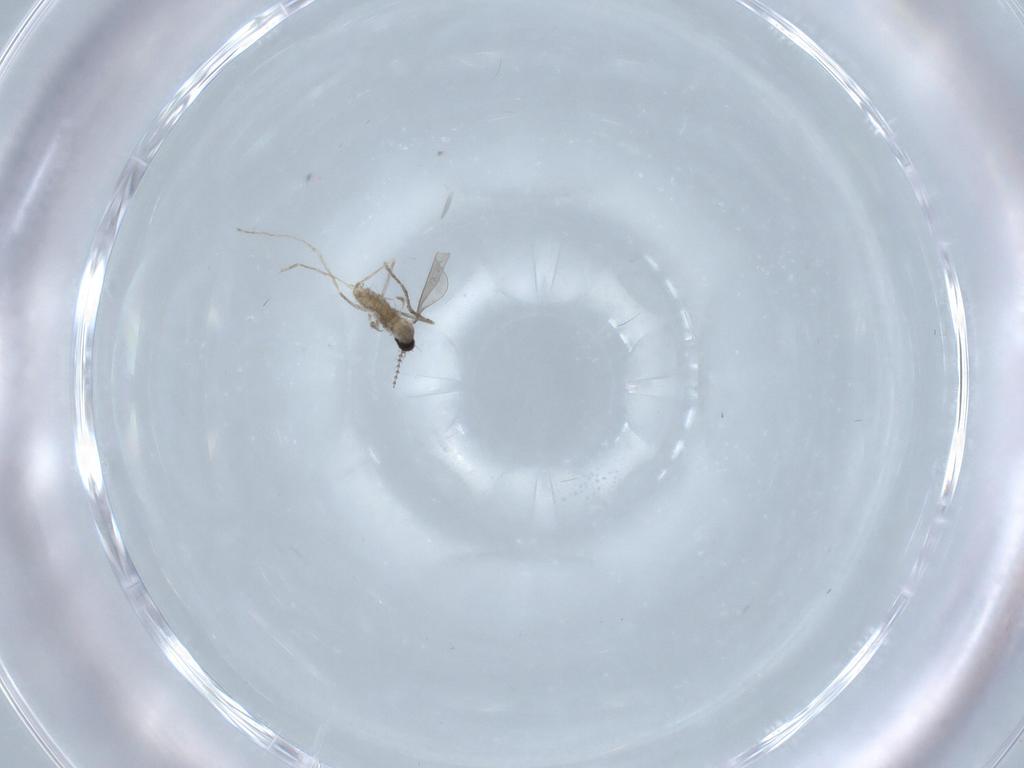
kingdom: Animalia
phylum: Arthropoda
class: Insecta
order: Diptera
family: Cecidomyiidae
